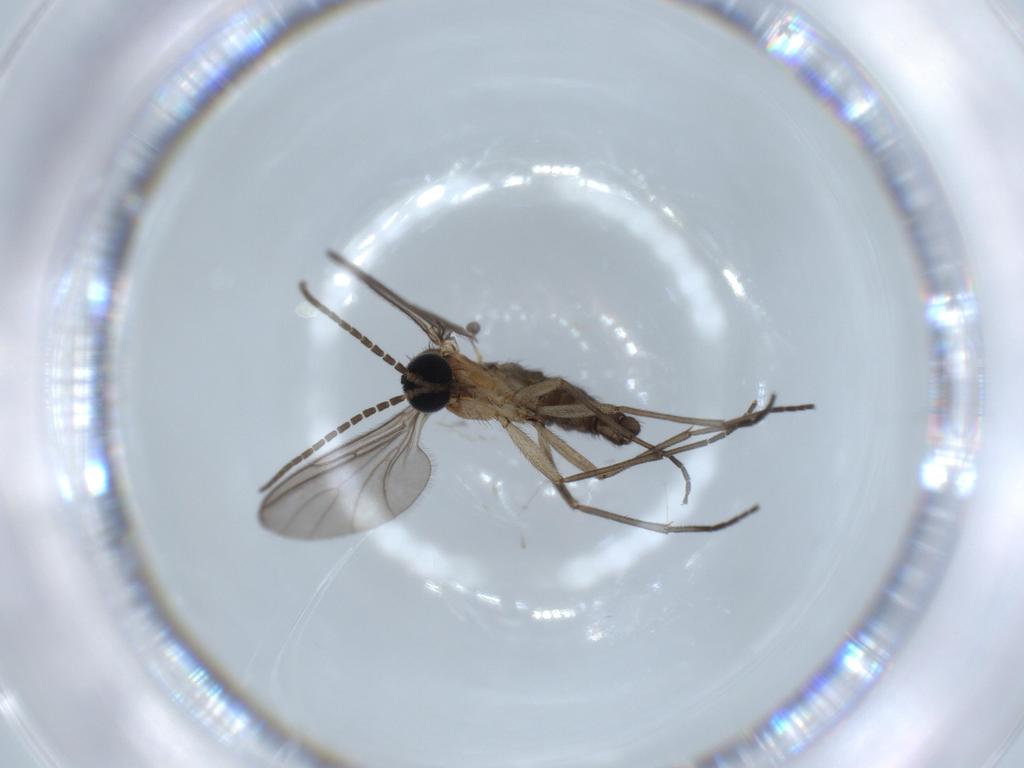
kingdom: Animalia
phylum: Arthropoda
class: Insecta
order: Diptera
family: Sciaridae
